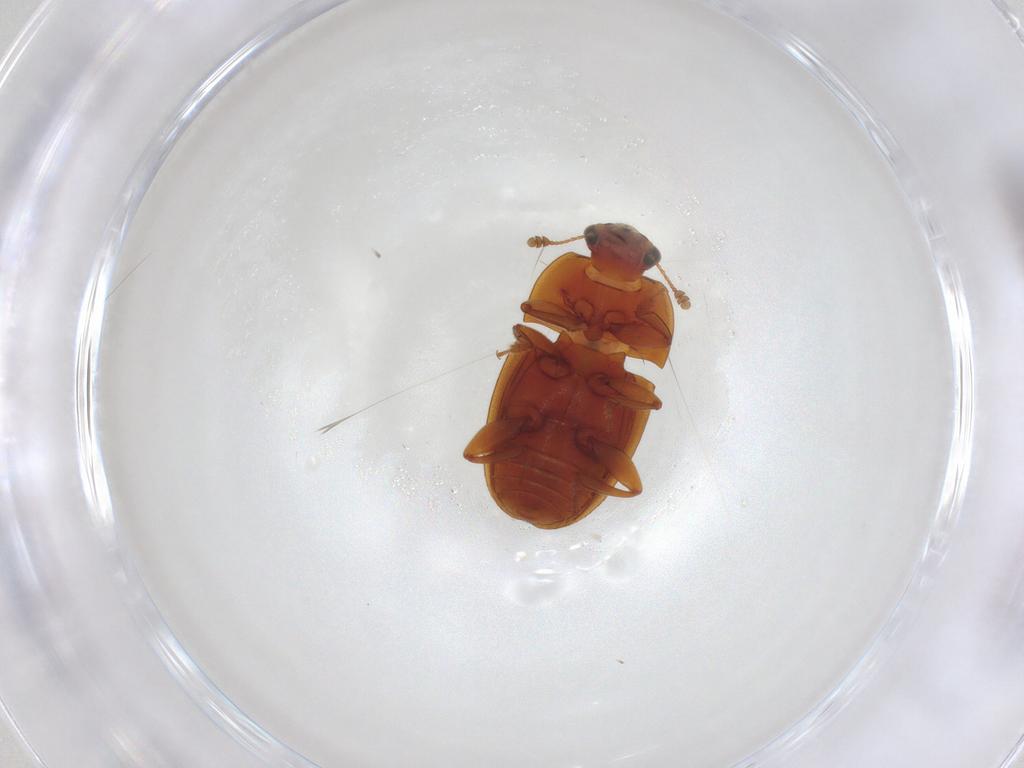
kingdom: Animalia
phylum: Arthropoda
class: Insecta
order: Coleoptera
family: Nitidulidae
